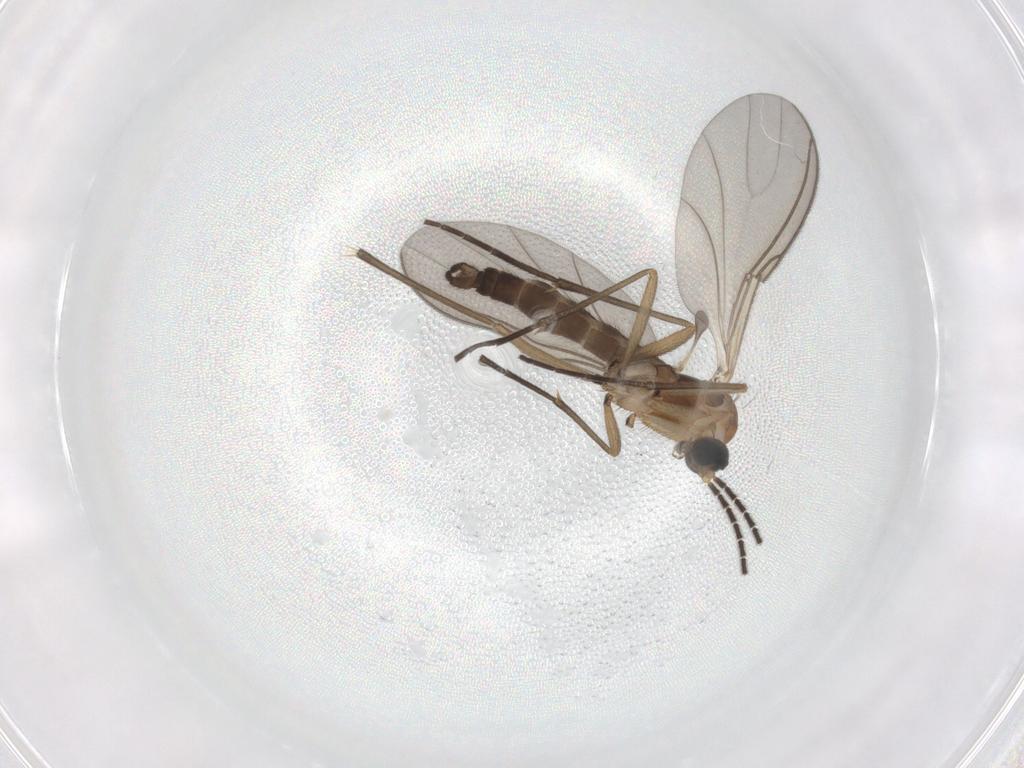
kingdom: Animalia
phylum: Arthropoda
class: Insecta
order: Diptera
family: Sciaridae
